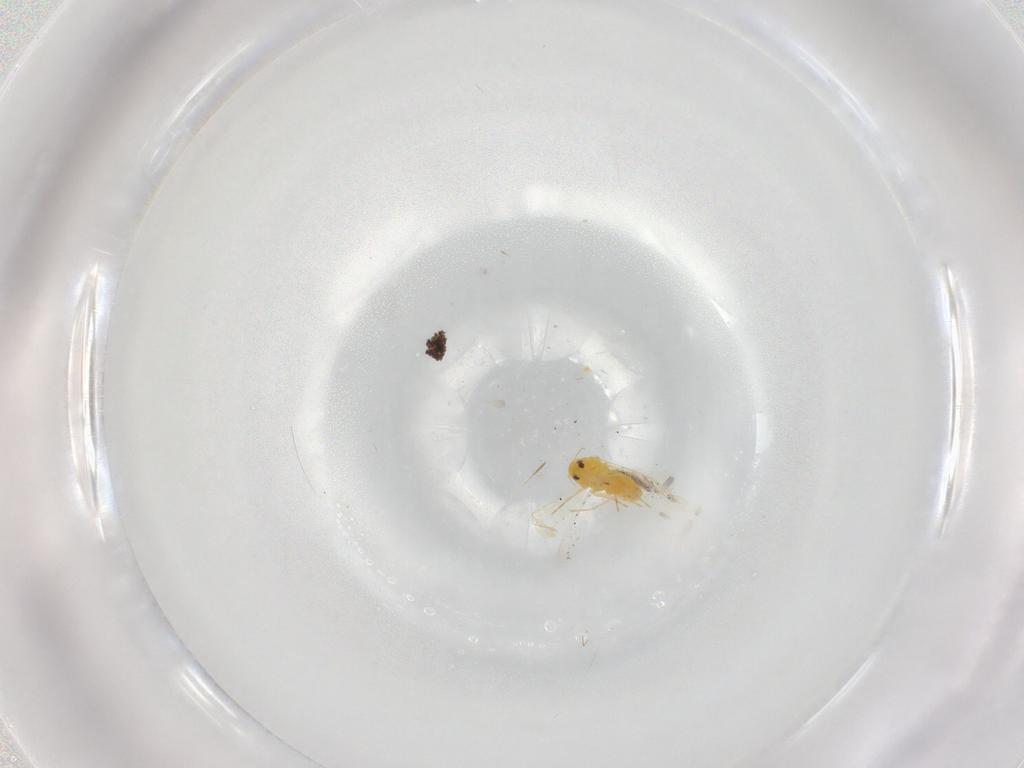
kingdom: Animalia
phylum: Arthropoda
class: Insecta
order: Hemiptera
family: Aleyrodidae
